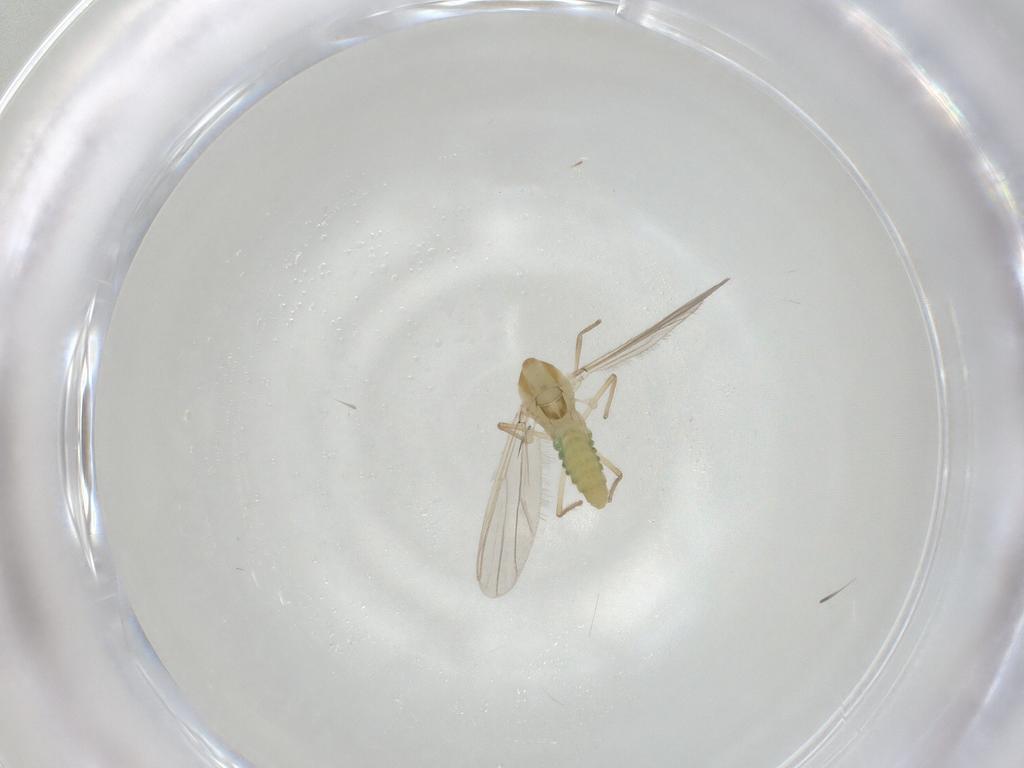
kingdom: Animalia
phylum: Arthropoda
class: Insecta
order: Diptera
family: Chironomidae
